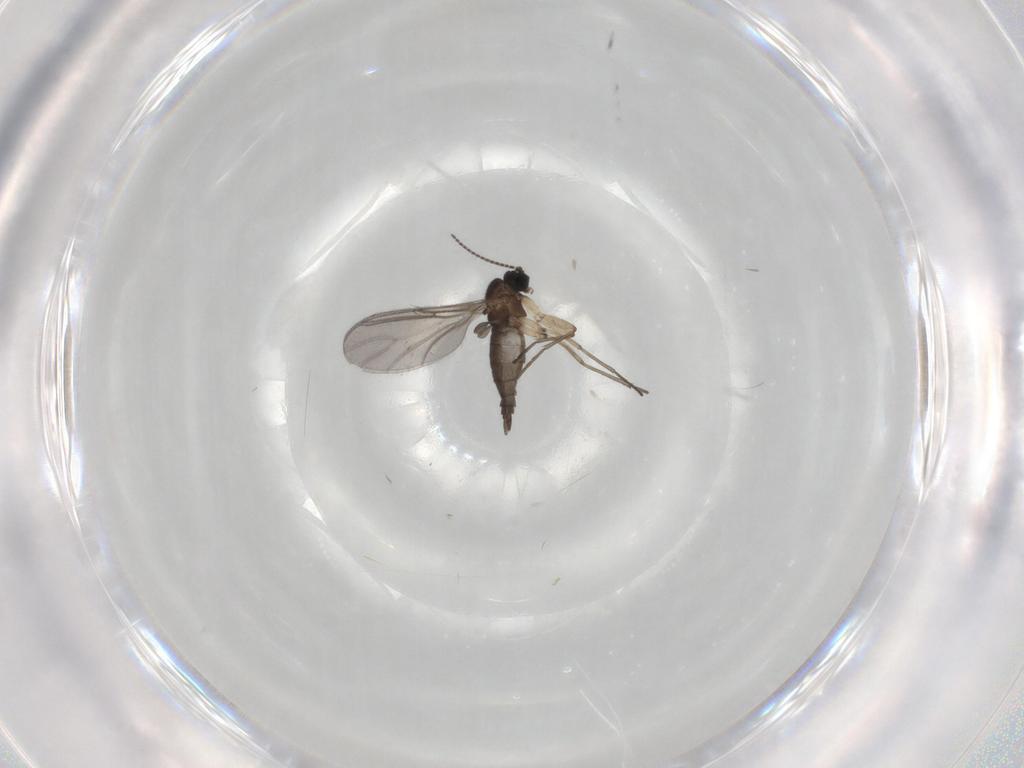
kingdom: Animalia
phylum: Arthropoda
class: Insecta
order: Diptera
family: Sciaridae
